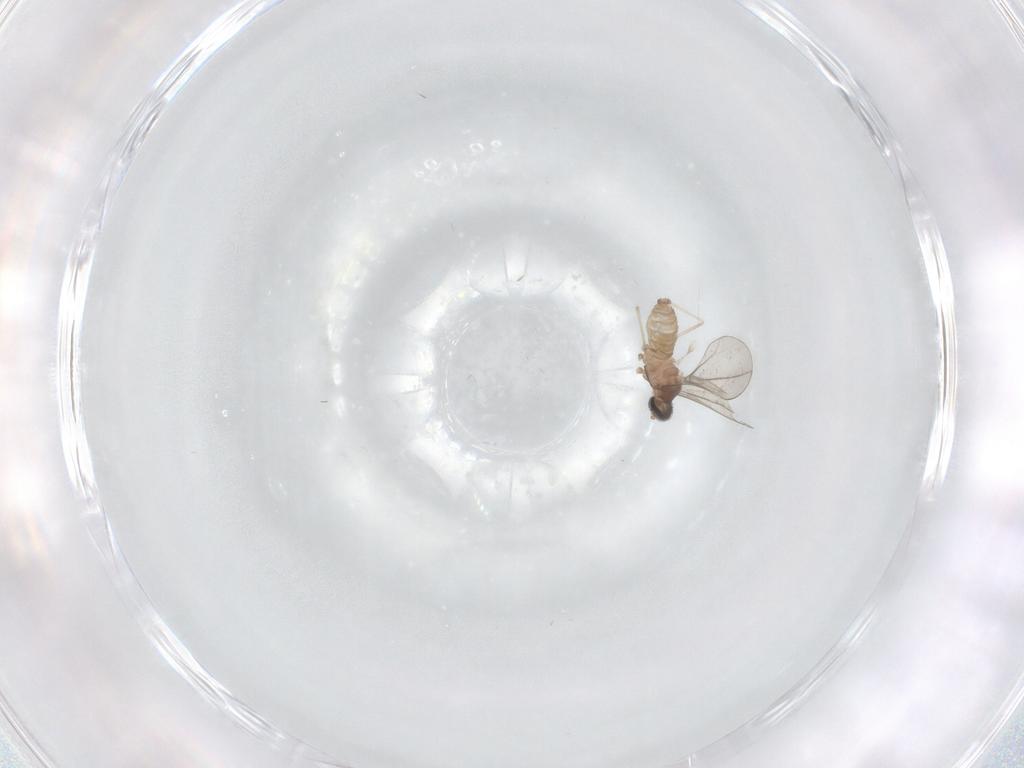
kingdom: Animalia
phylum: Arthropoda
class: Insecta
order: Diptera
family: Cecidomyiidae
